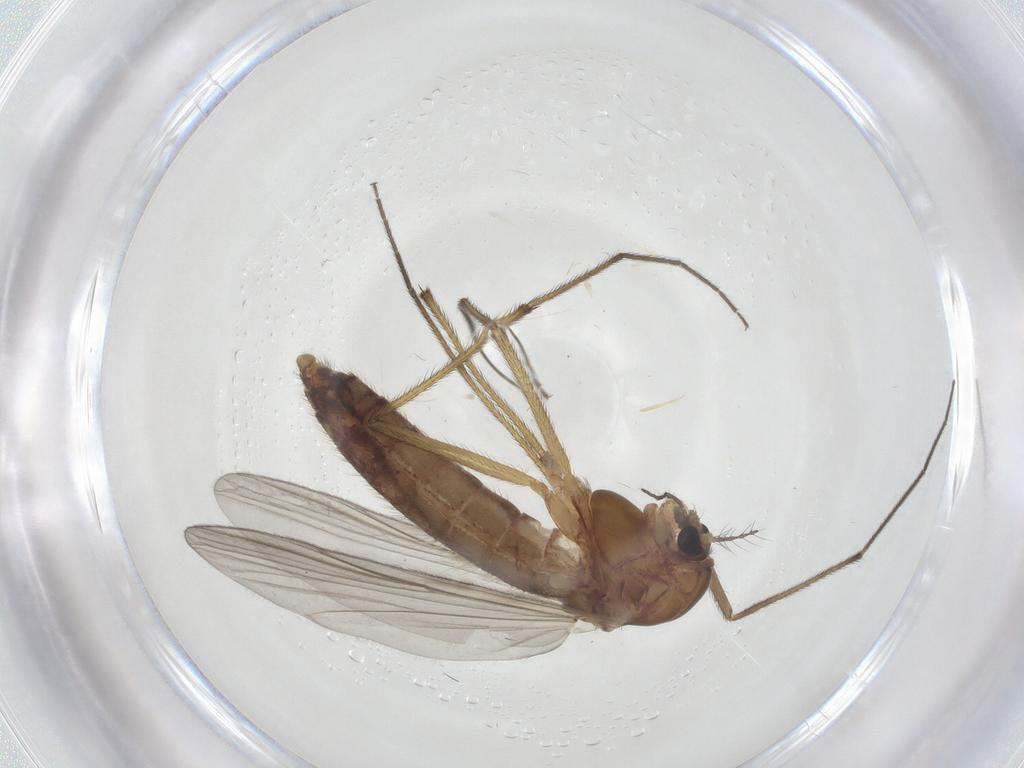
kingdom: Animalia
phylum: Arthropoda
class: Insecta
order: Diptera
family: Chironomidae
